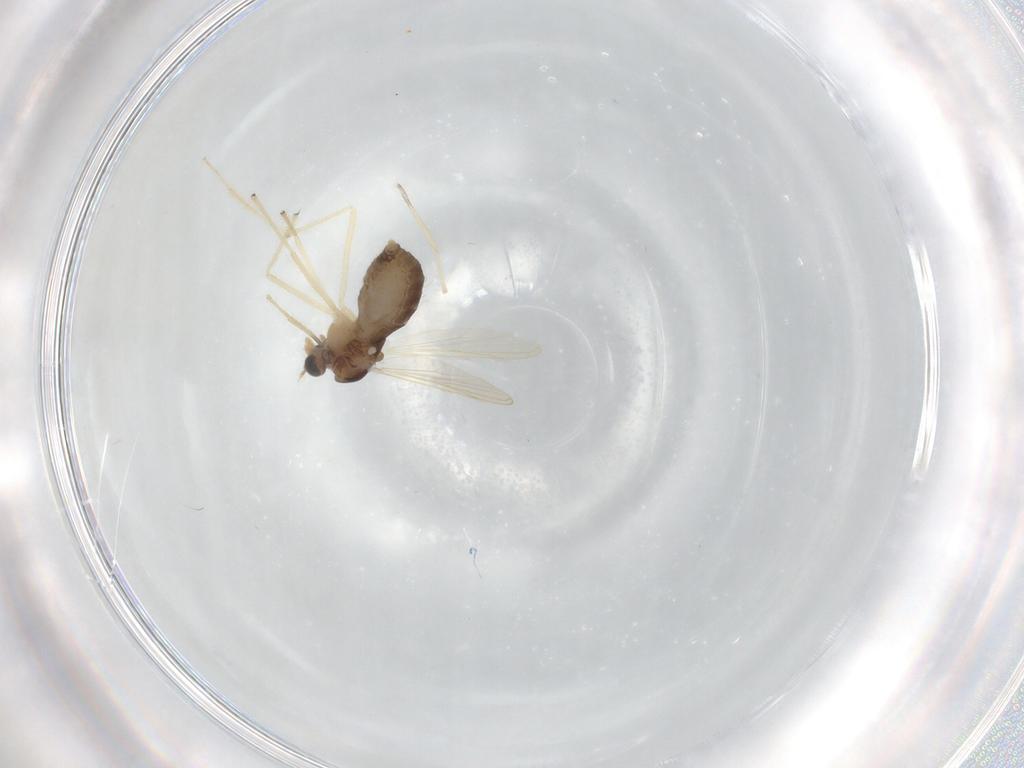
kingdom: Animalia
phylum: Arthropoda
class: Insecta
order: Diptera
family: Chironomidae
